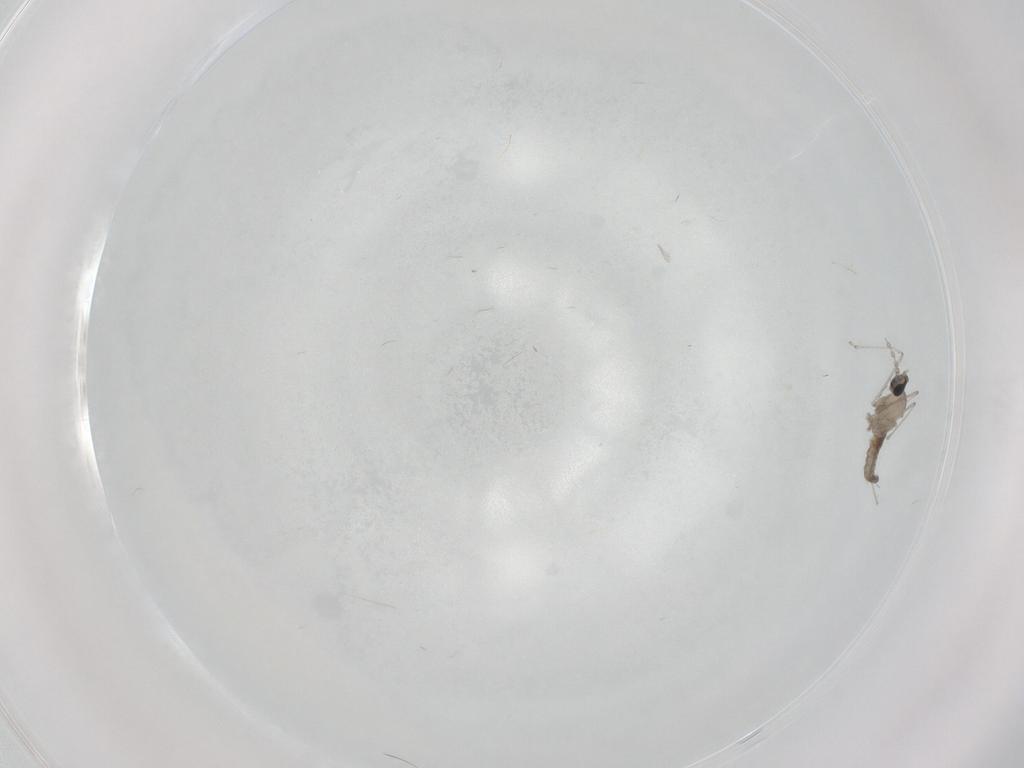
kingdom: Animalia
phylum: Arthropoda
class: Insecta
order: Diptera
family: Cecidomyiidae
